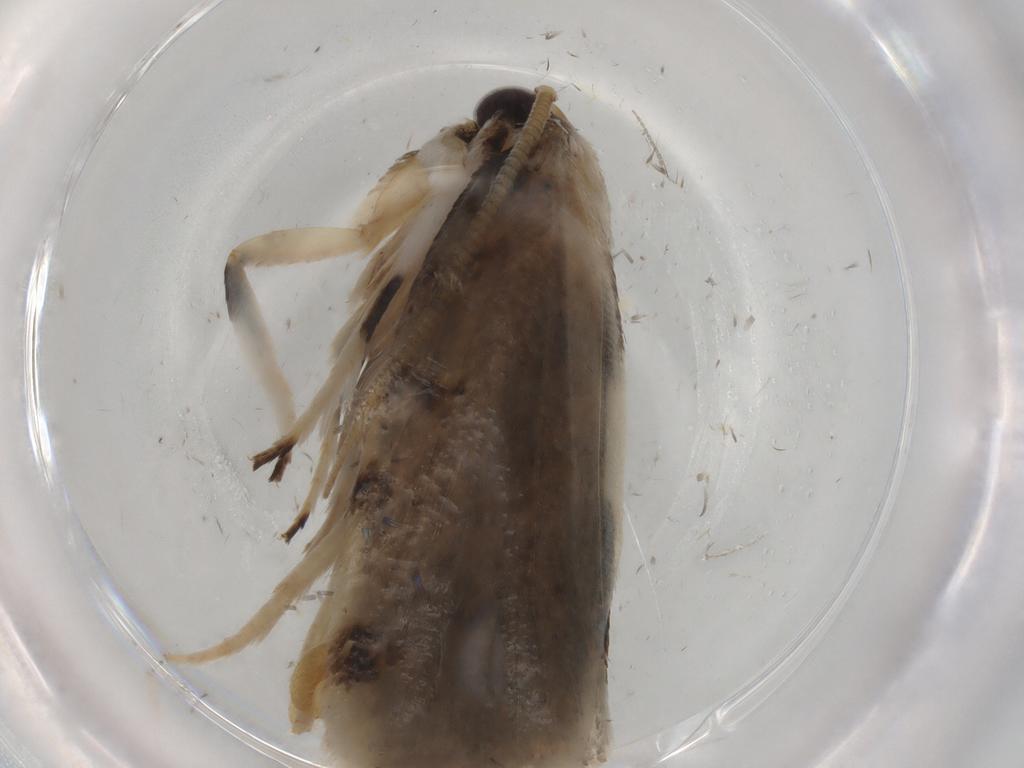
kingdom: Animalia
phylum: Arthropoda
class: Insecta
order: Lepidoptera
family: Tineidae
